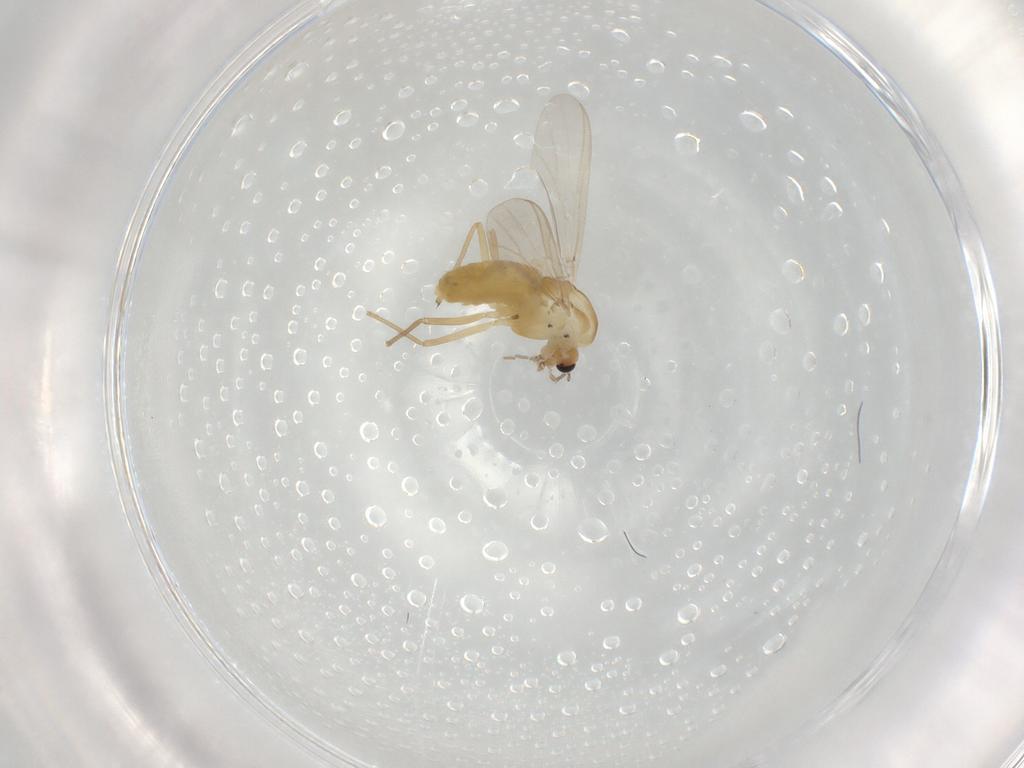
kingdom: Animalia
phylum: Arthropoda
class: Insecta
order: Diptera
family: Chironomidae
